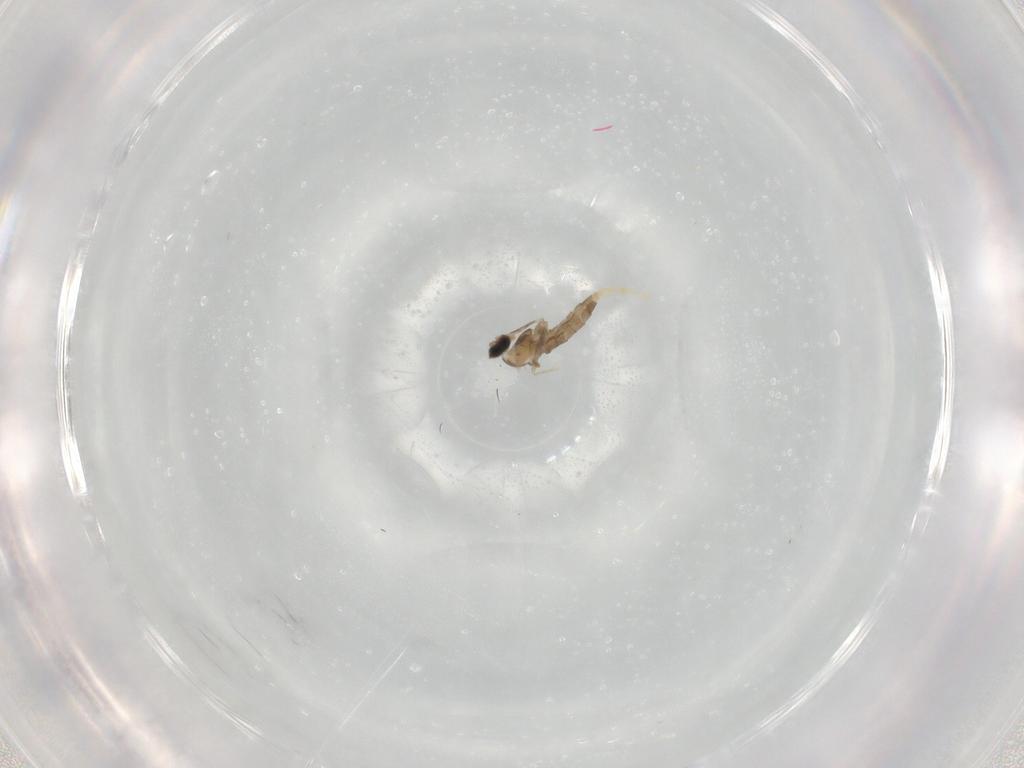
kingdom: Animalia
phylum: Arthropoda
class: Insecta
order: Diptera
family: Cecidomyiidae
